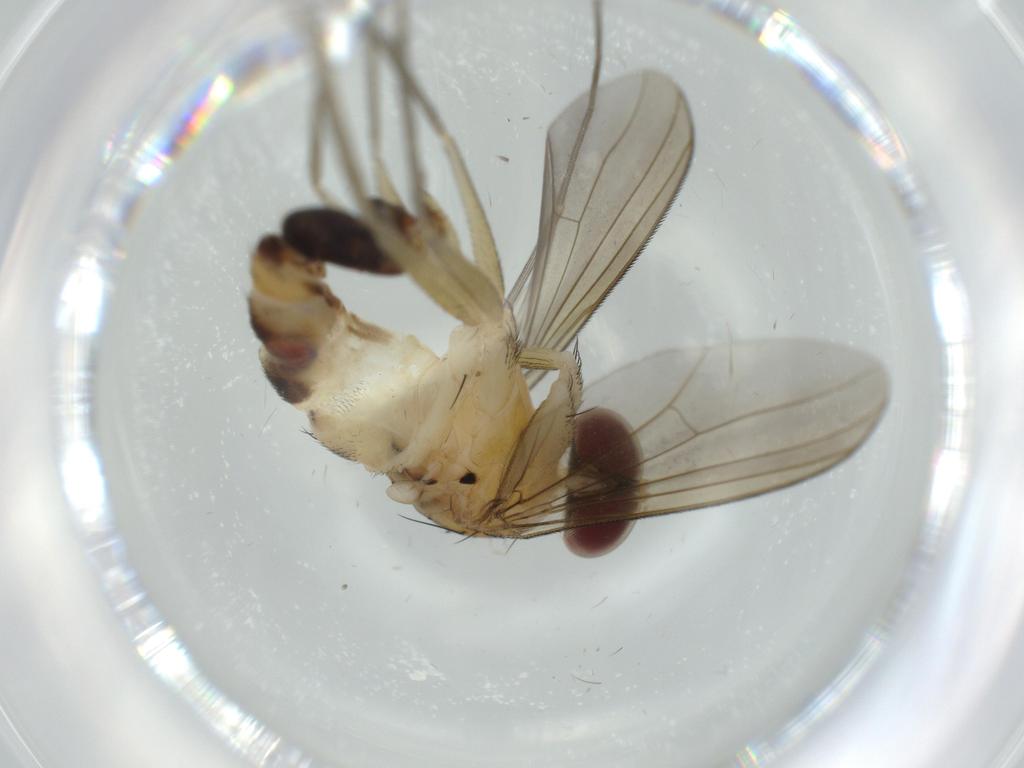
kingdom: Animalia
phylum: Arthropoda
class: Insecta
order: Diptera
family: Dolichopodidae
